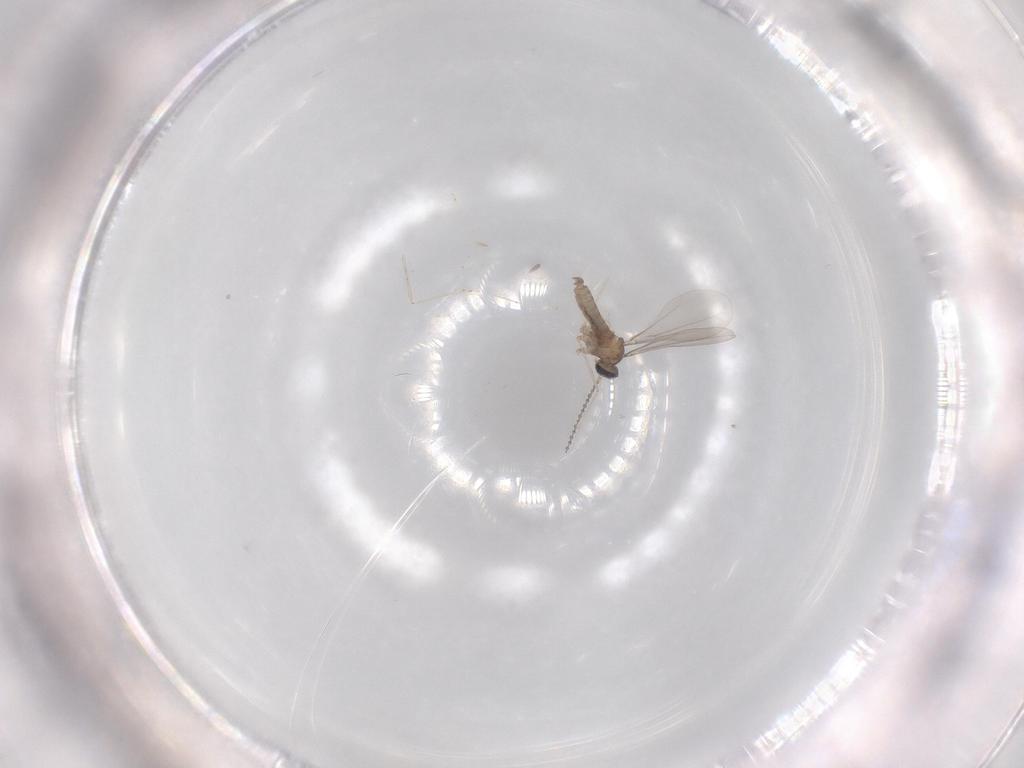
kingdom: Animalia
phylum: Arthropoda
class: Insecta
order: Diptera
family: Cecidomyiidae
